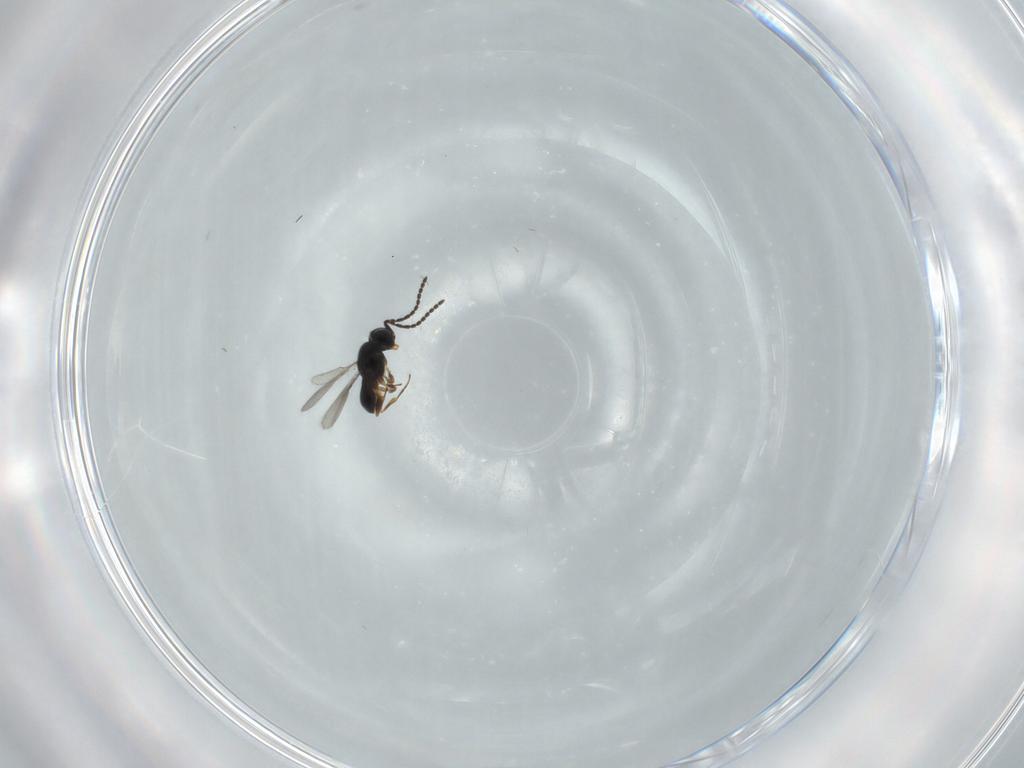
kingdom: Animalia
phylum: Arthropoda
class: Insecta
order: Hymenoptera
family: Scelionidae
